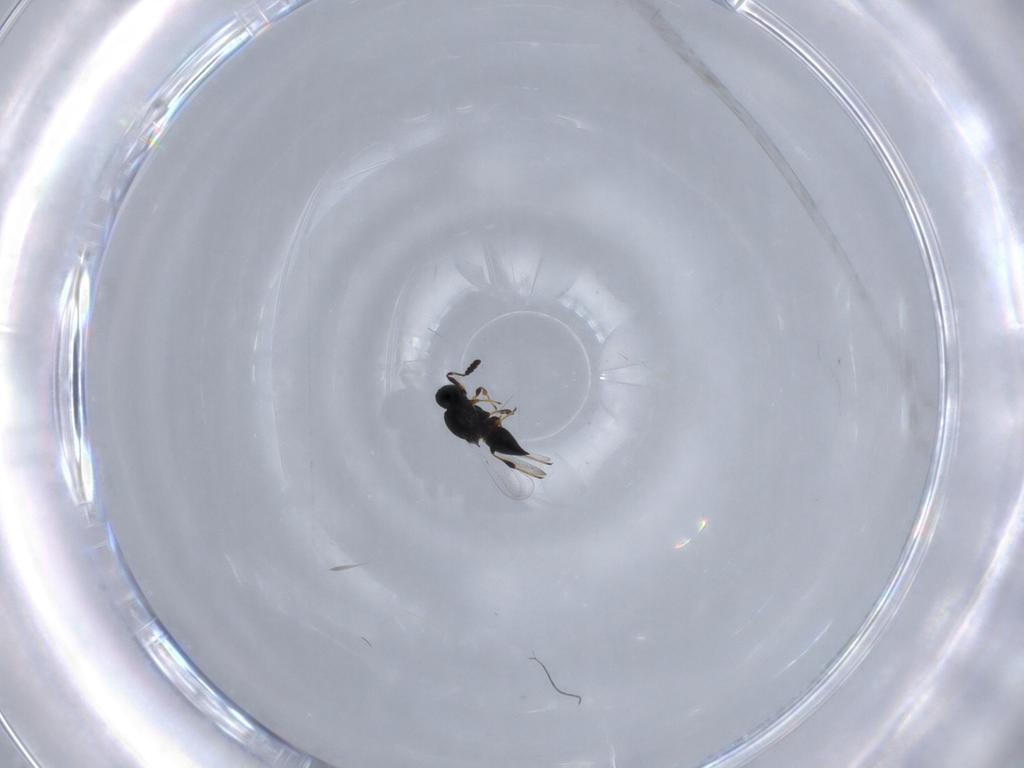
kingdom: Animalia
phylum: Arthropoda
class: Insecta
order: Hymenoptera
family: Platygastridae
